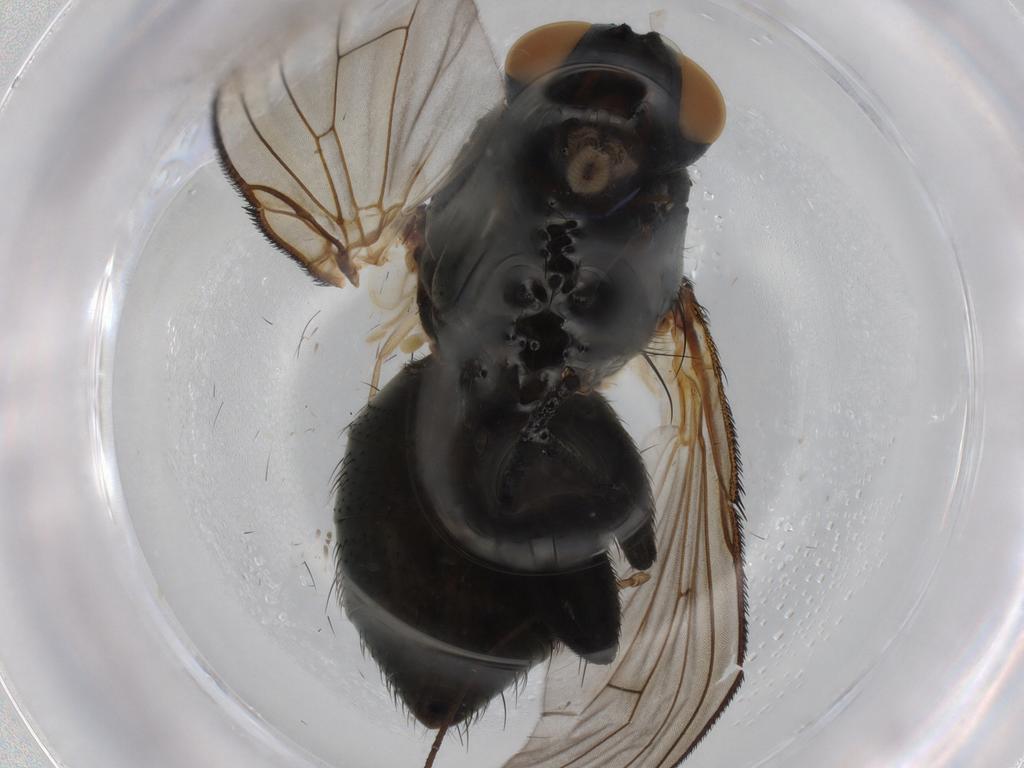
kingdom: Animalia
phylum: Arthropoda
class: Insecta
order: Diptera
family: Muscidae
